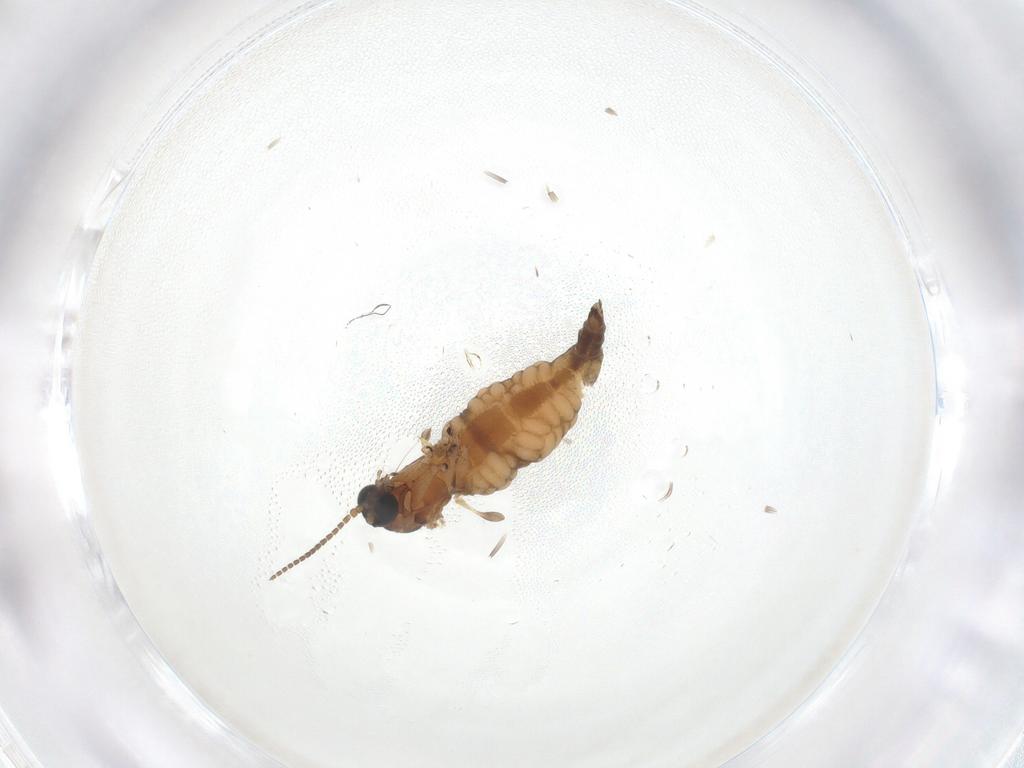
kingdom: Animalia
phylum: Arthropoda
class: Insecta
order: Diptera
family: Sciaridae
